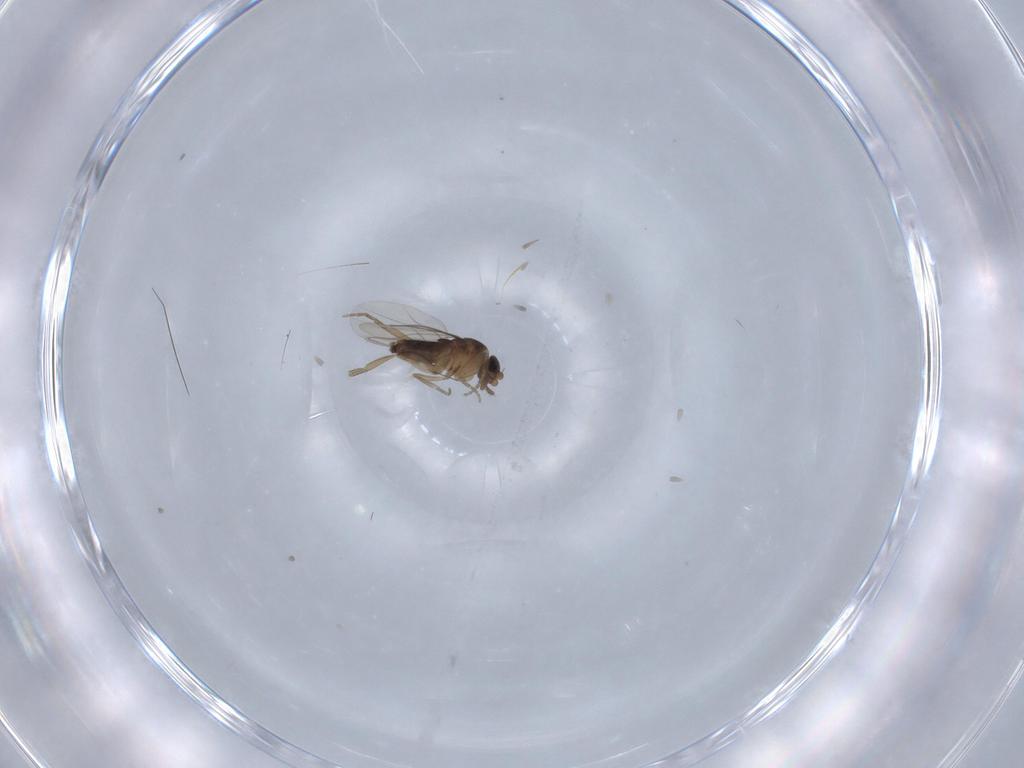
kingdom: Animalia
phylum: Arthropoda
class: Insecta
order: Diptera
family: Phoridae
